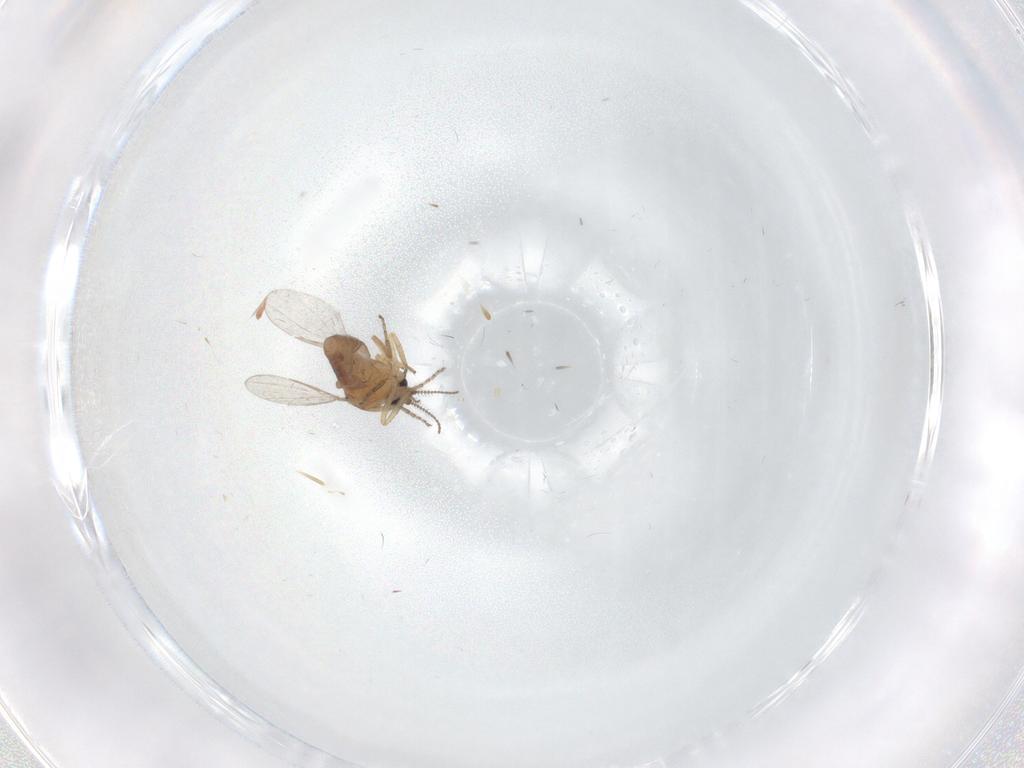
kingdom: Animalia
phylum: Arthropoda
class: Insecta
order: Diptera
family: Ceratopogonidae
